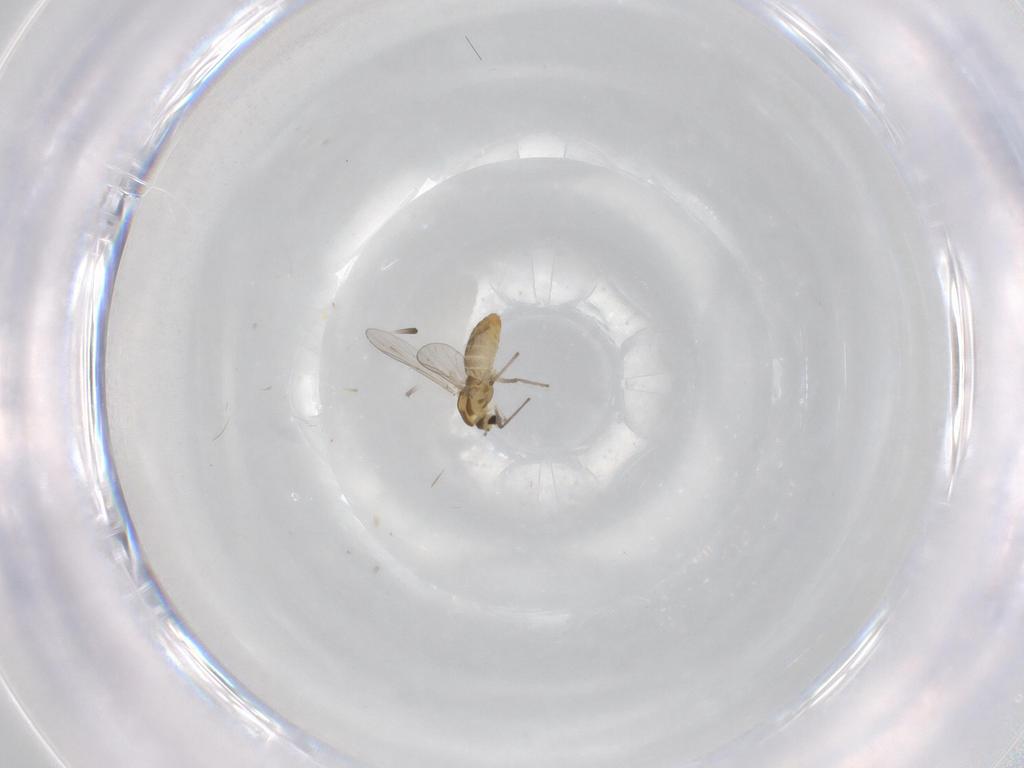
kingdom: Animalia
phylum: Arthropoda
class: Insecta
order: Diptera
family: Chironomidae
